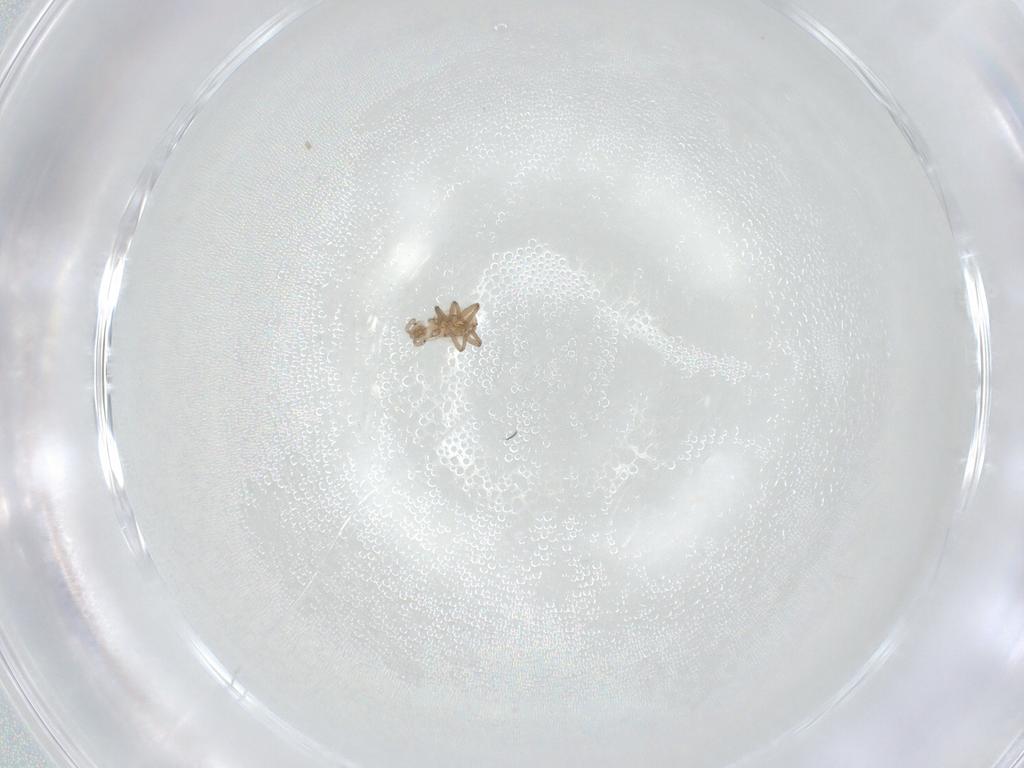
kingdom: Animalia
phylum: Arthropoda
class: Insecta
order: Hemiptera
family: Aphididae
